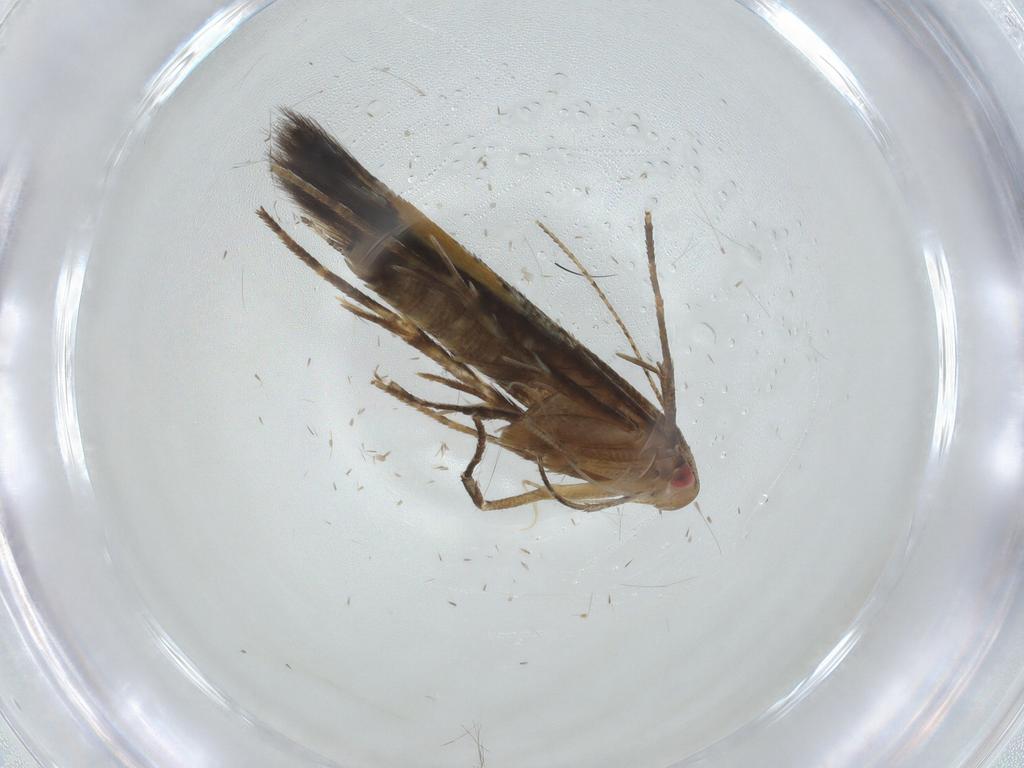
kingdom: Animalia
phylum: Arthropoda
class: Insecta
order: Lepidoptera
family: Cosmopterigidae
